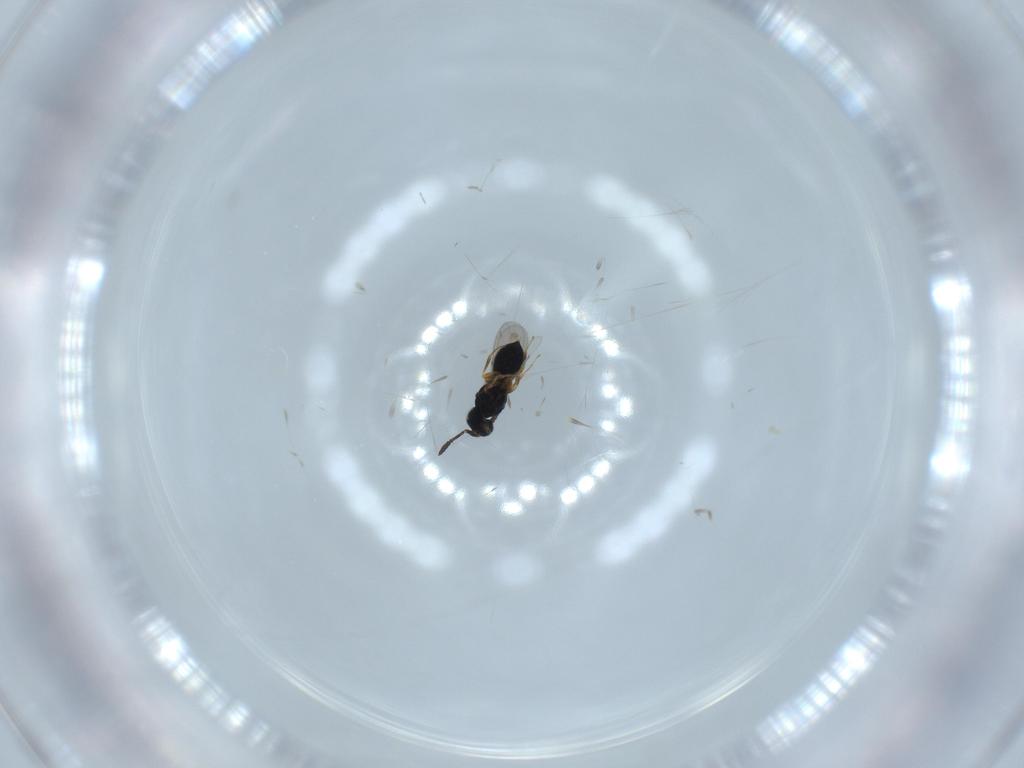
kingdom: Animalia
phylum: Arthropoda
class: Insecta
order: Hymenoptera
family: Scelionidae
